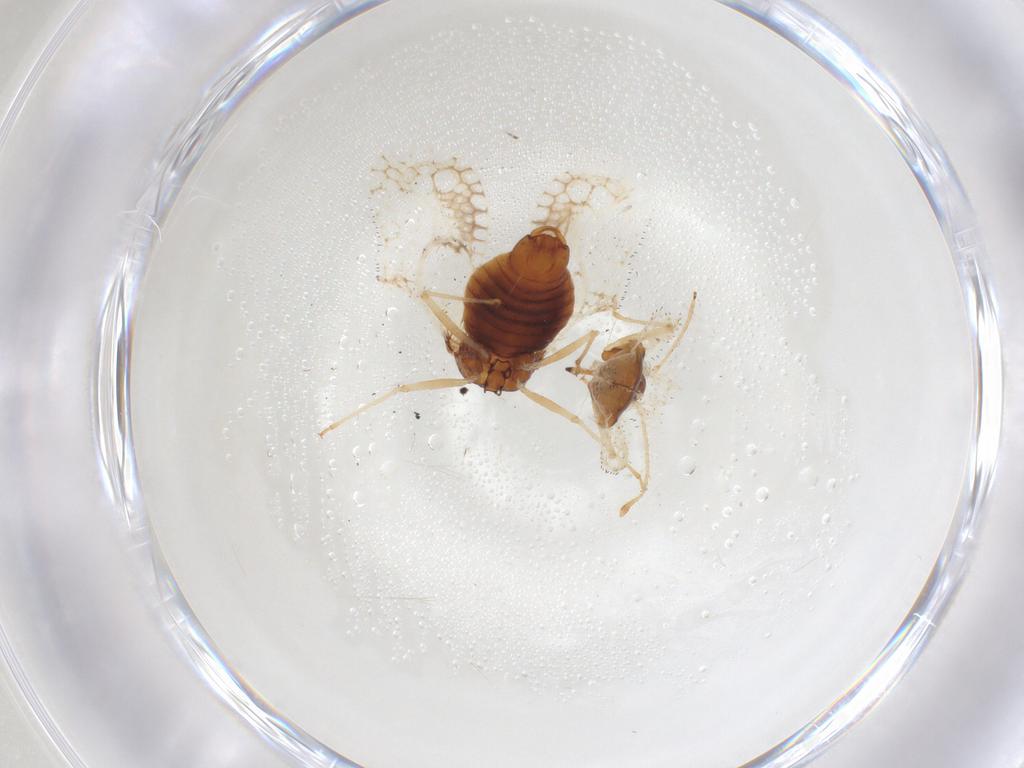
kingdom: Animalia
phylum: Arthropoda
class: Insecta
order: Hemiptera
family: Tingidae
